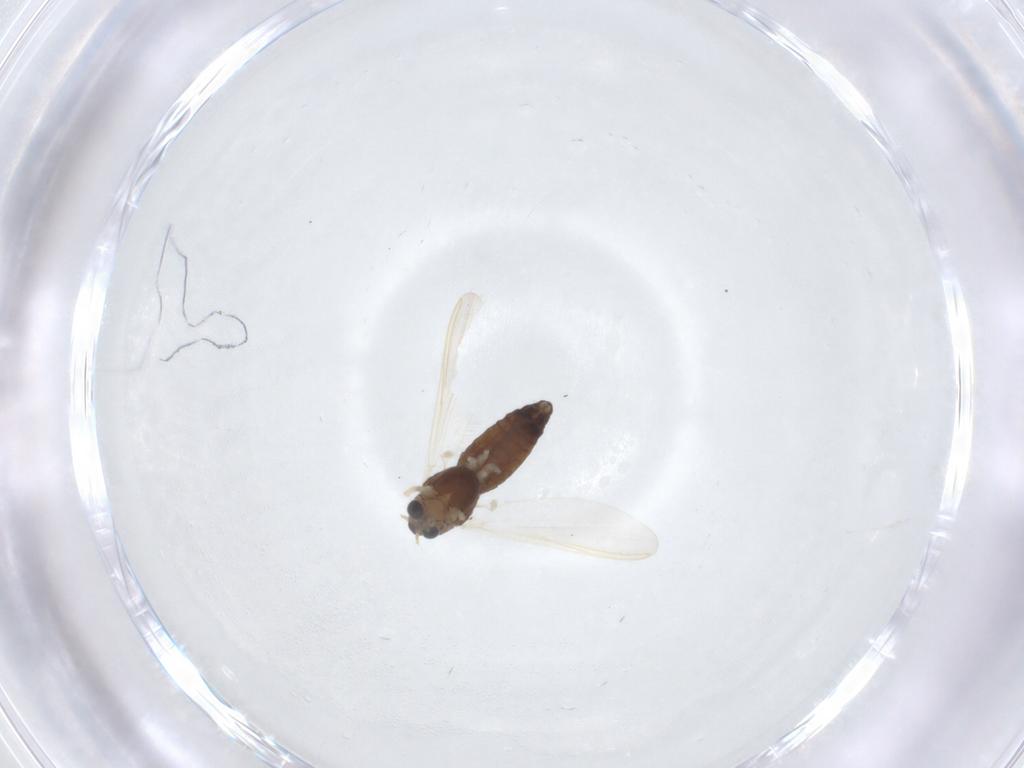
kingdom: Animalia
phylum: Arthropoda
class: Insecta
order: Diptera
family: Chironomidae
